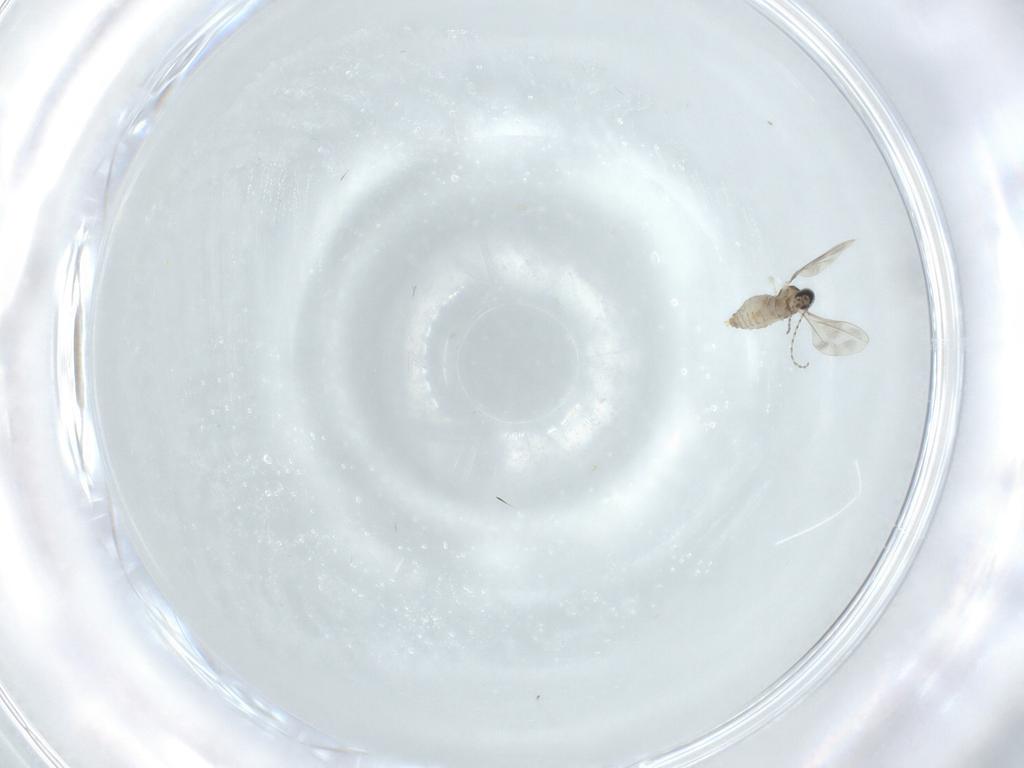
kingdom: Animalia
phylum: Arthropoda
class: Insecta
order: Diptera
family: Cecidomyiidae
